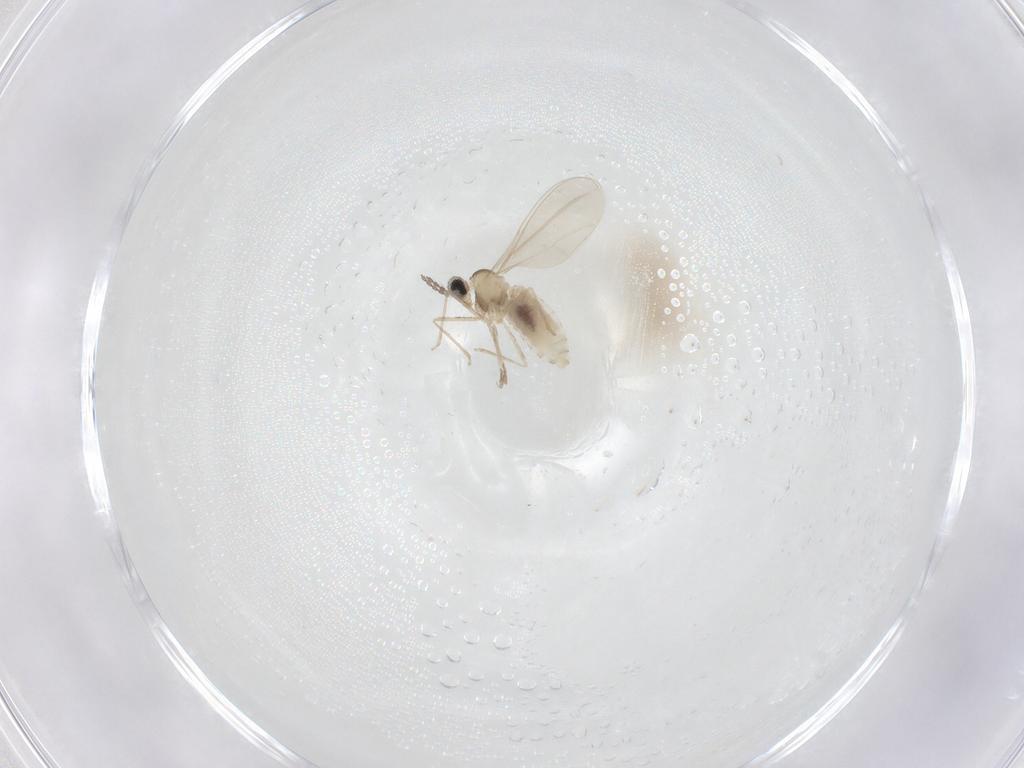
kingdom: Animalia
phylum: Arthropoda
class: Insecta
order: Diptera
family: Cecidomyiidae
